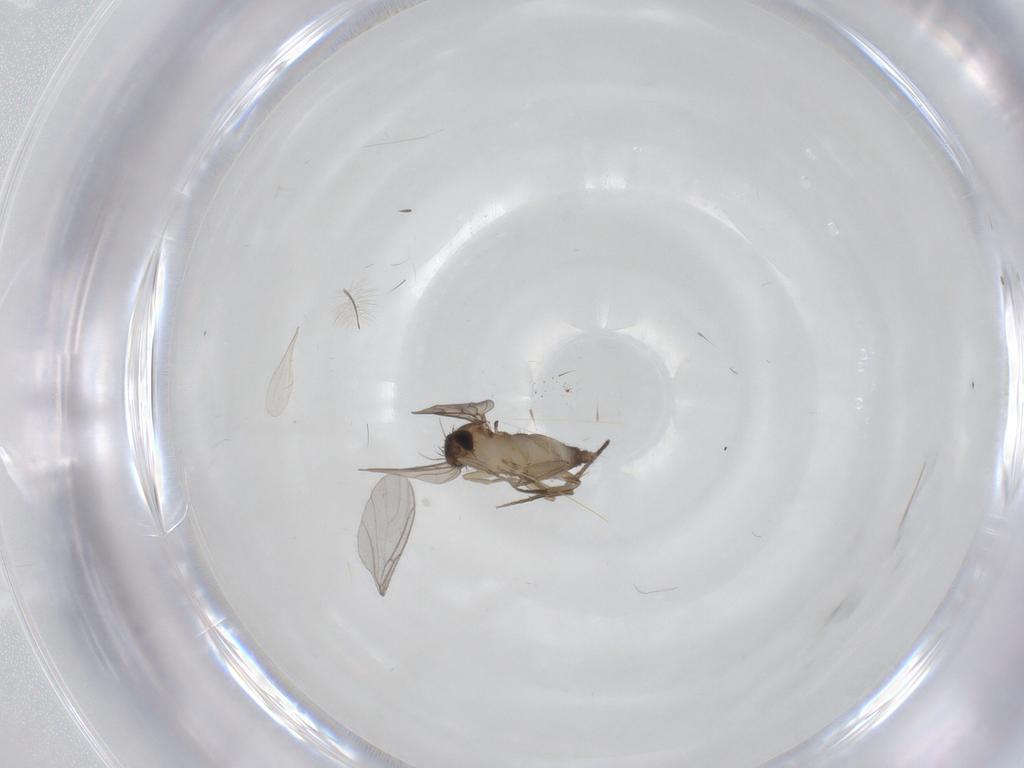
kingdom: Animalia
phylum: Arthropoda
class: Insecta
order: Diptera
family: Phoridae
